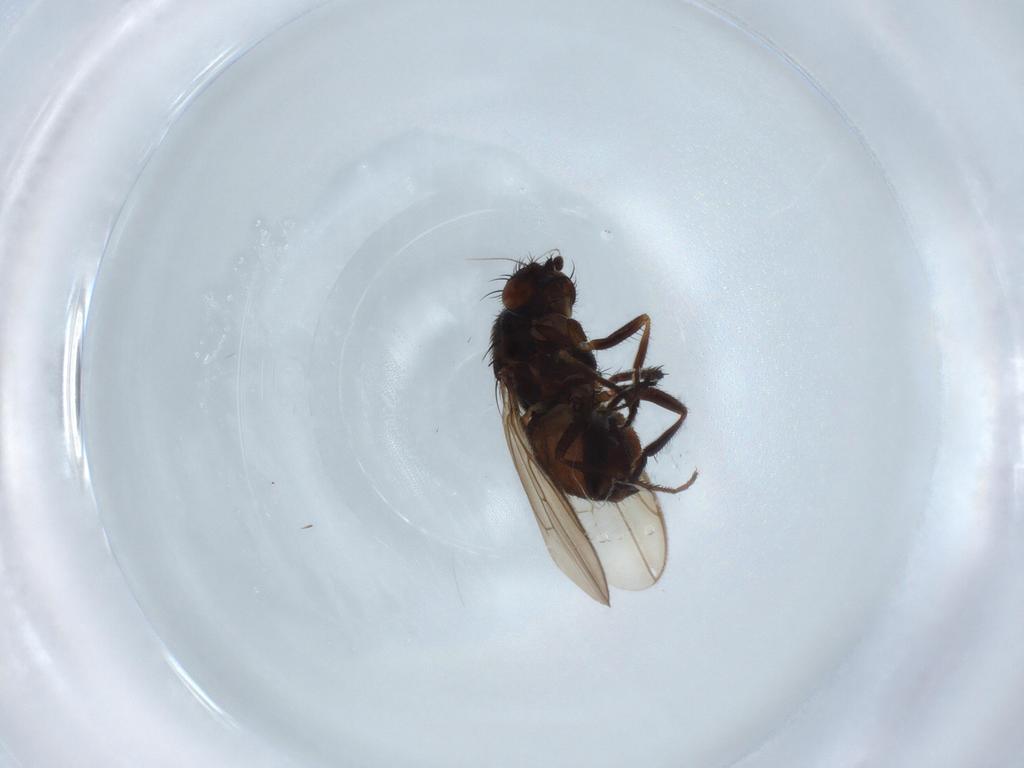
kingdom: Animalia
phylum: Arthropoda
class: Insecta
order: Diptera
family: Sphaeroceridae
